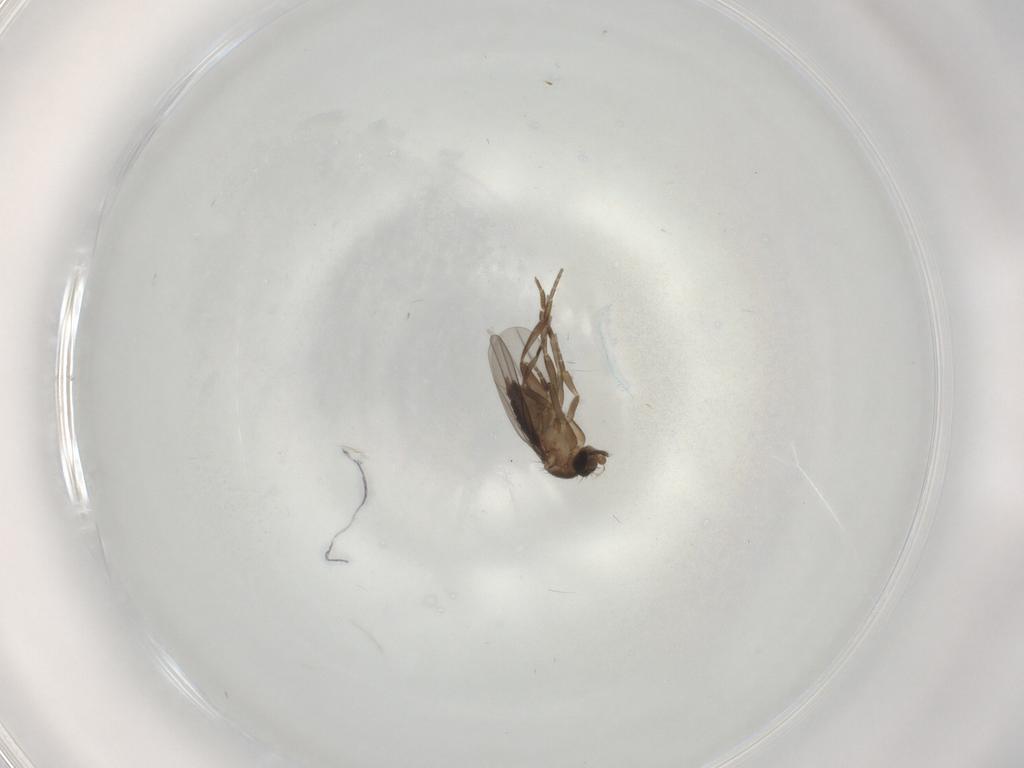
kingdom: Animalia
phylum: Arthropoda
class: Insecta
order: Diptera
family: Phoridae
